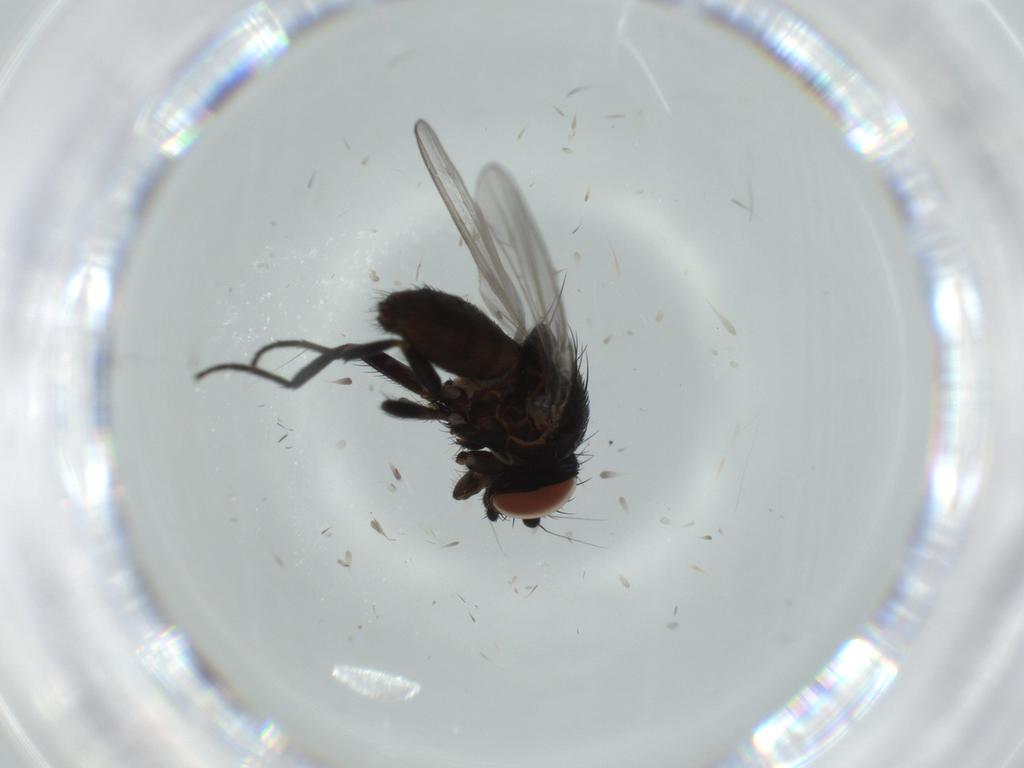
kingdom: Animalia
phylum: Arthropoda
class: Insecta
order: Diptera
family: Milichiidae
